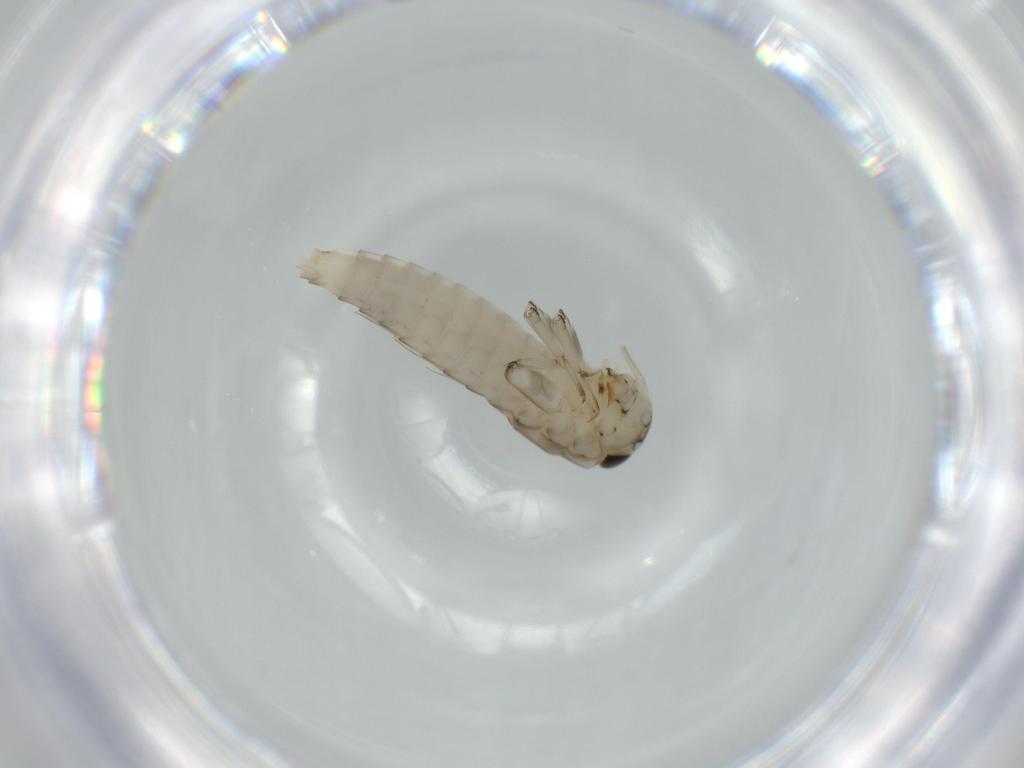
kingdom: Animalia
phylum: Arthropoda
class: Insecta
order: Ephemeroptera
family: Baetidae
